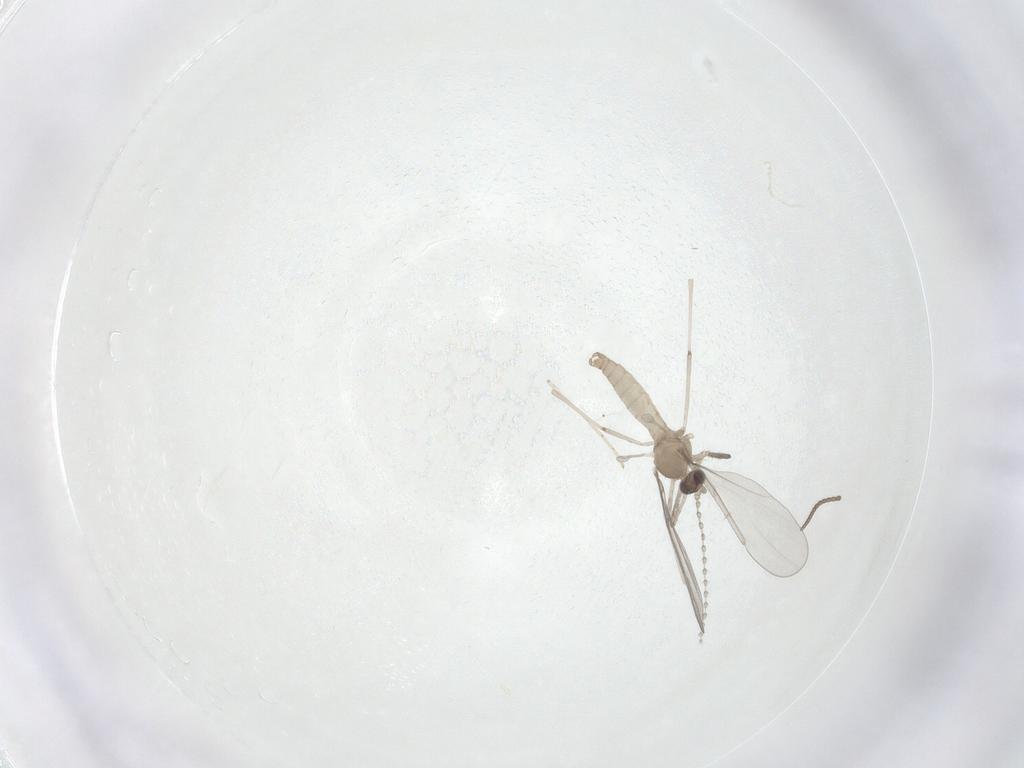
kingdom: Animalia
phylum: Arthropoda
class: Insecta
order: Diptera
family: Cecidomyiidae
